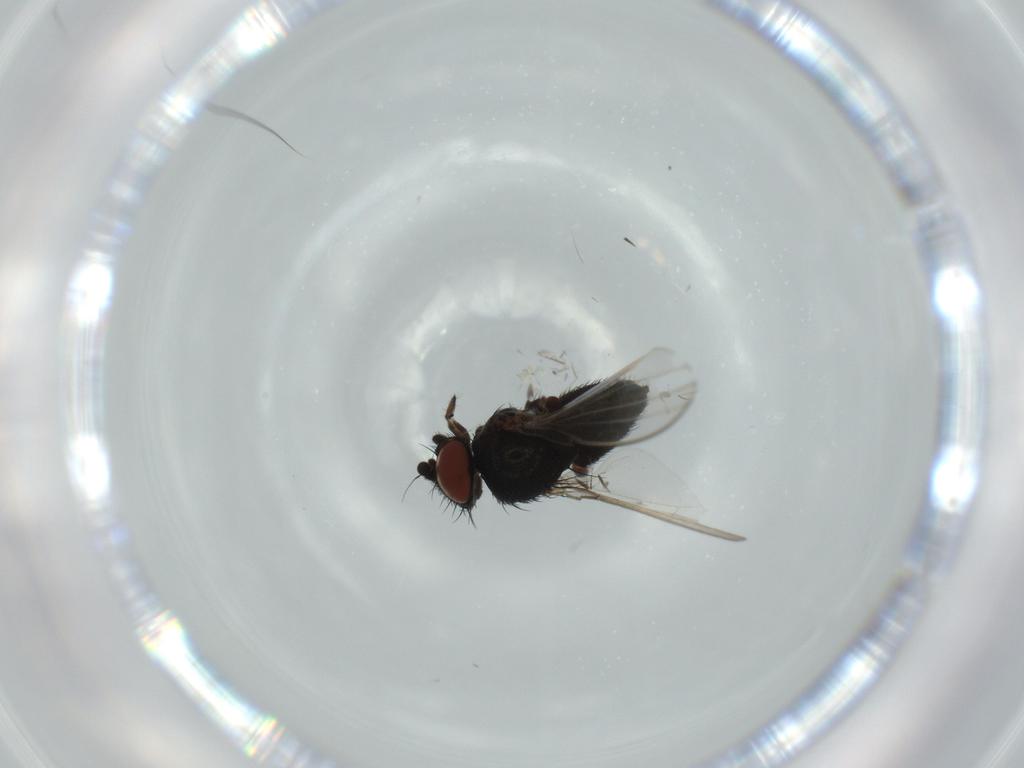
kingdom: Animalia
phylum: Arthropoda
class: Insecta
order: Diptera
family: Milichiidae
